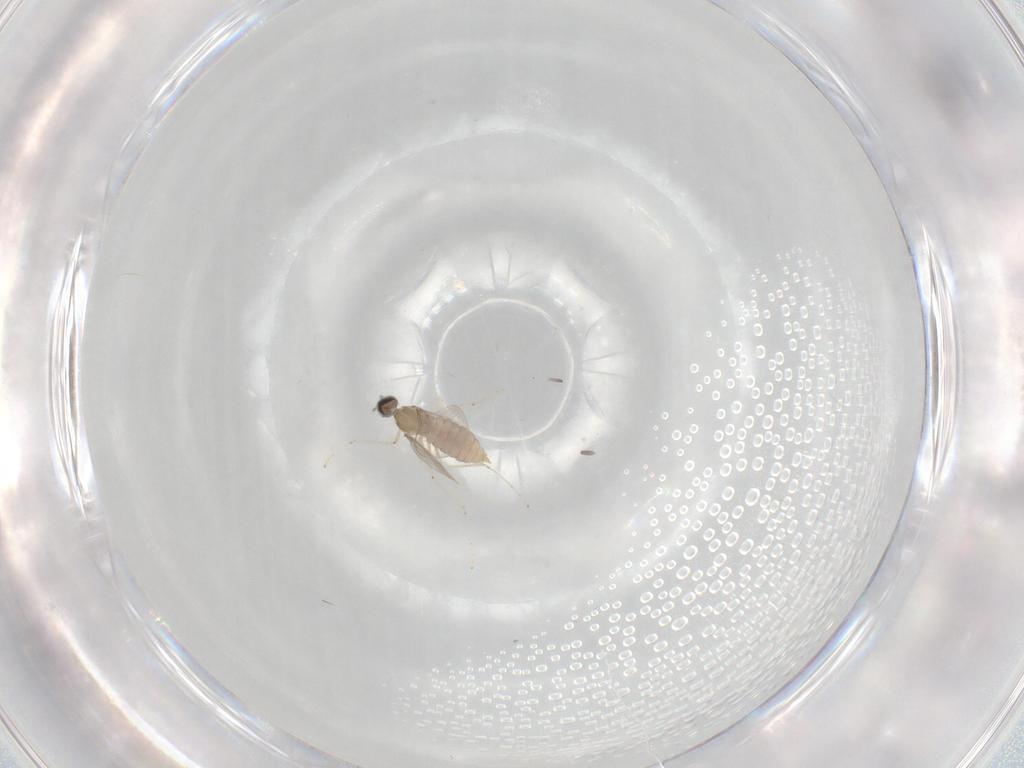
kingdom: Animalia
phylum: Arthropoda
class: Insecta
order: Diptera
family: Cecidomyiidae
